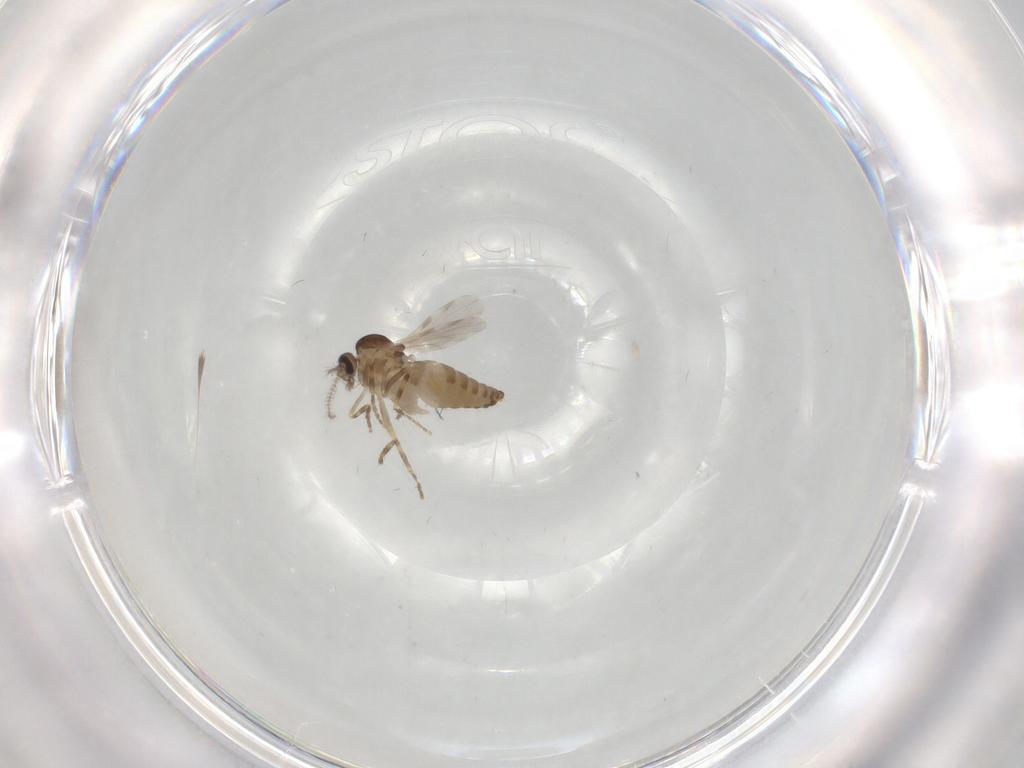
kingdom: Animalia
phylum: Arthropoda
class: Insecta
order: Diptera
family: Ceratopogonidae
